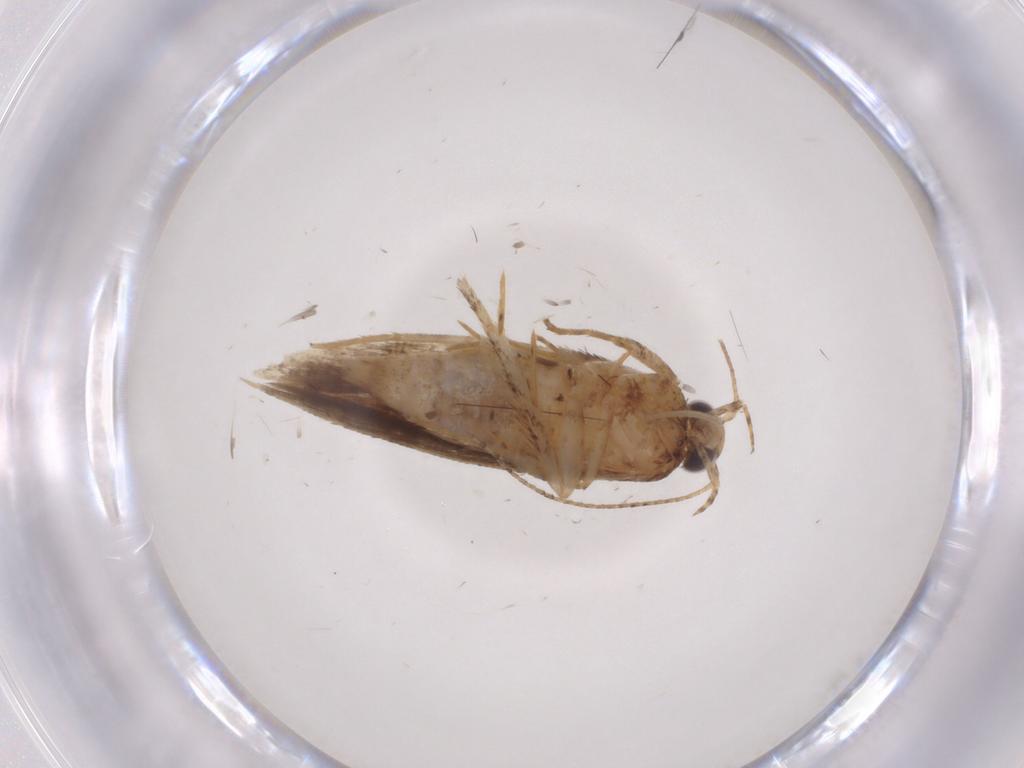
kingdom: Animalia
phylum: Arthropoda
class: Insecta
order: Lepidoptera
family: Gelechiidae
